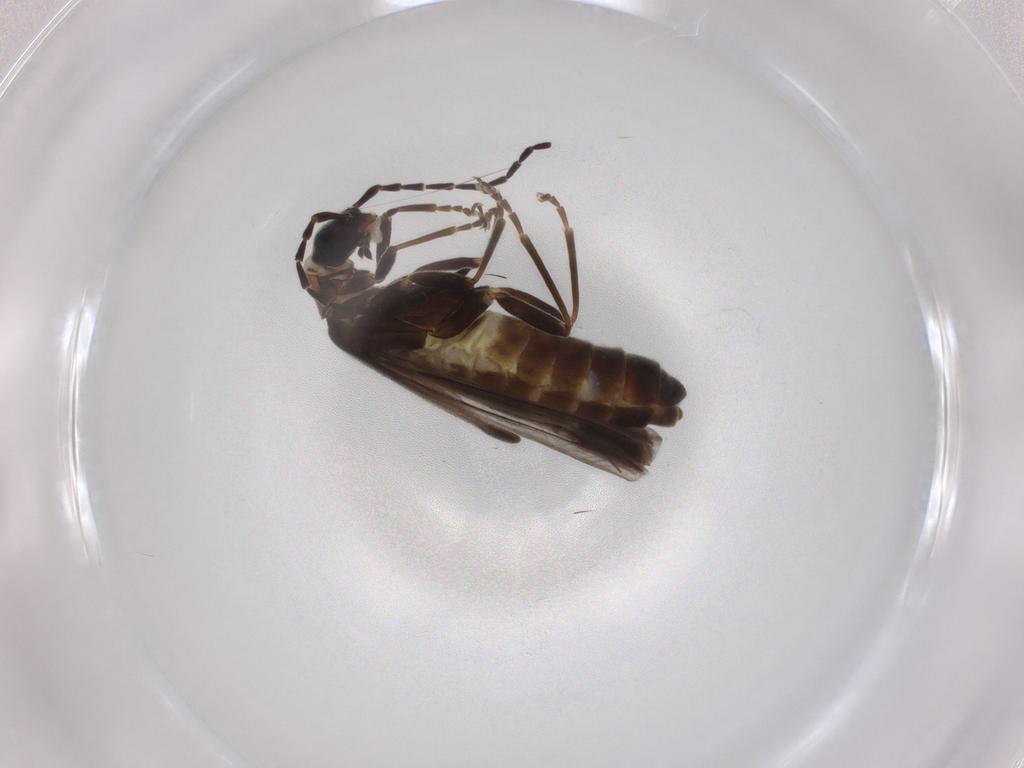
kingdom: Animalia
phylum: Arthropoda
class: Insecta
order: Coleoptera
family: Cantharidae
